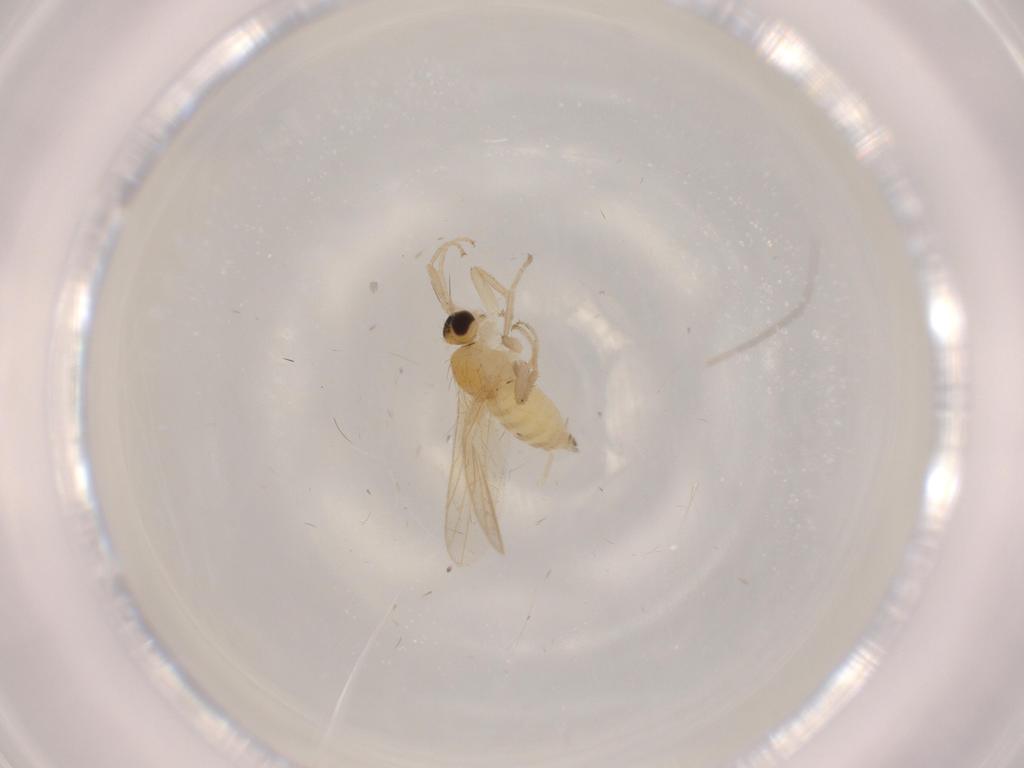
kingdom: Animalia
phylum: Arthropoda
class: Insecta
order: Diptera
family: Hybotidae
